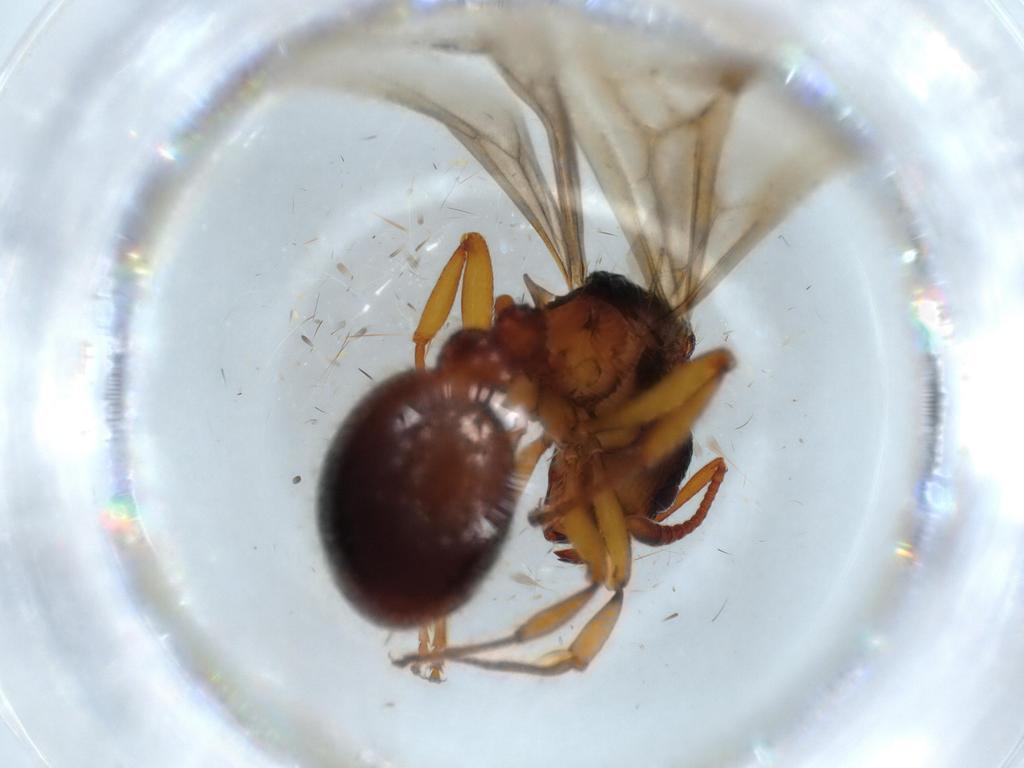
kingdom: Animalia
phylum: Arthropoda
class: Insecta
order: Hymenoptera
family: Formicidae
